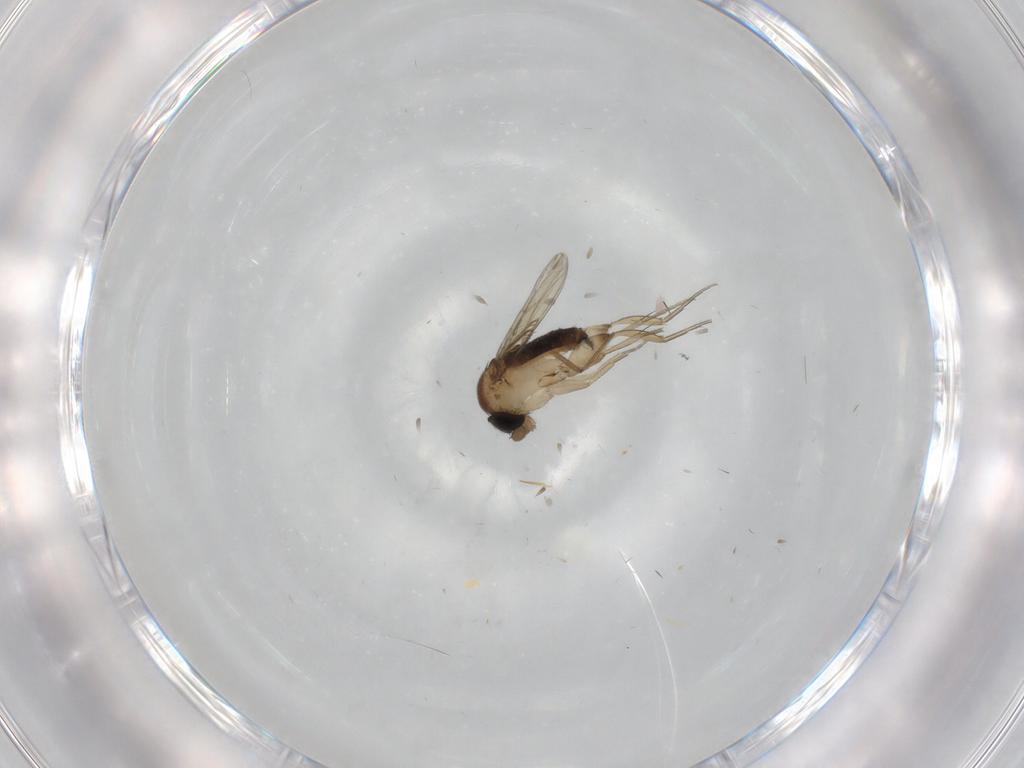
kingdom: Animalia
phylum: Arthropoda
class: Insecta
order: Diptera
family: Phoridae
